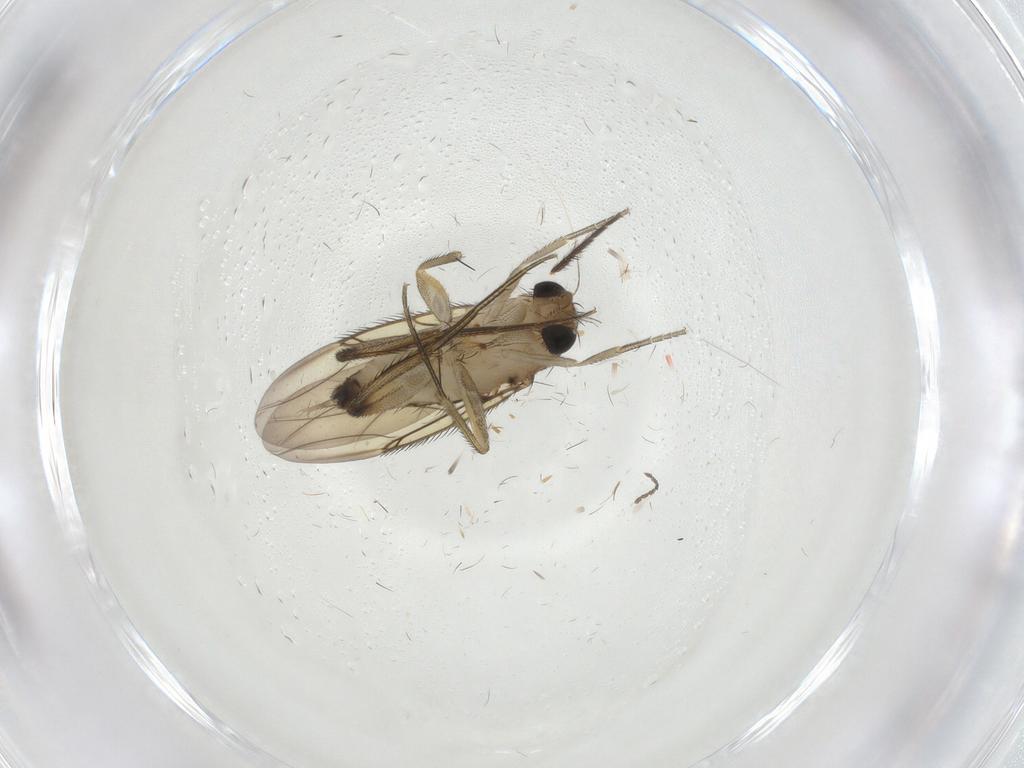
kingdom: Animalia
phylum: Arthropoda
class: Insecta
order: Diptera
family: Phoridae
